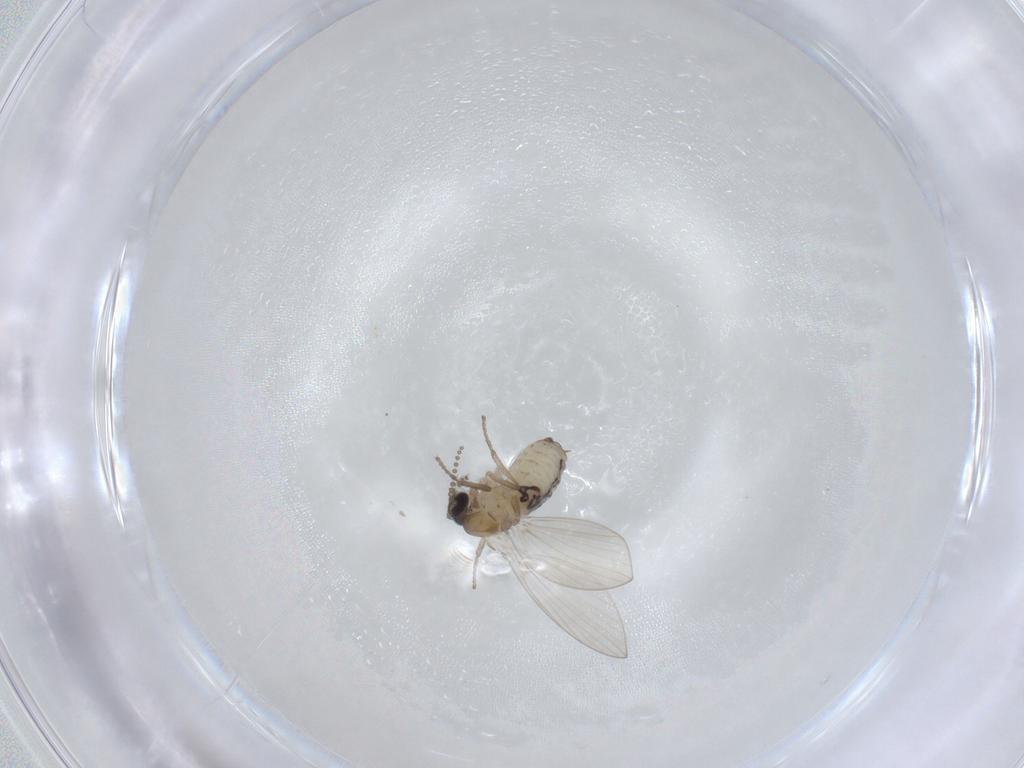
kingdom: Animalia
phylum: Arthropoda
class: Insecta
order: Diptera
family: Psychodidae
